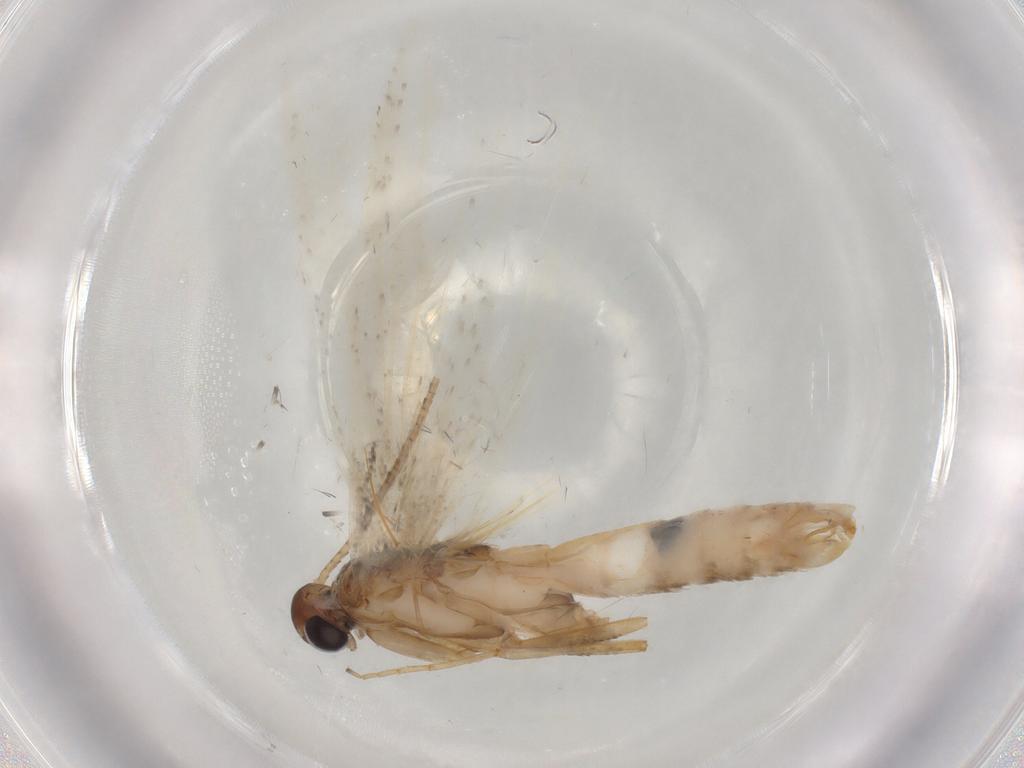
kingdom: Animalia
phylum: Arthropoda
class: Insecta
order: Lepidoptera
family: Gelechiidae
